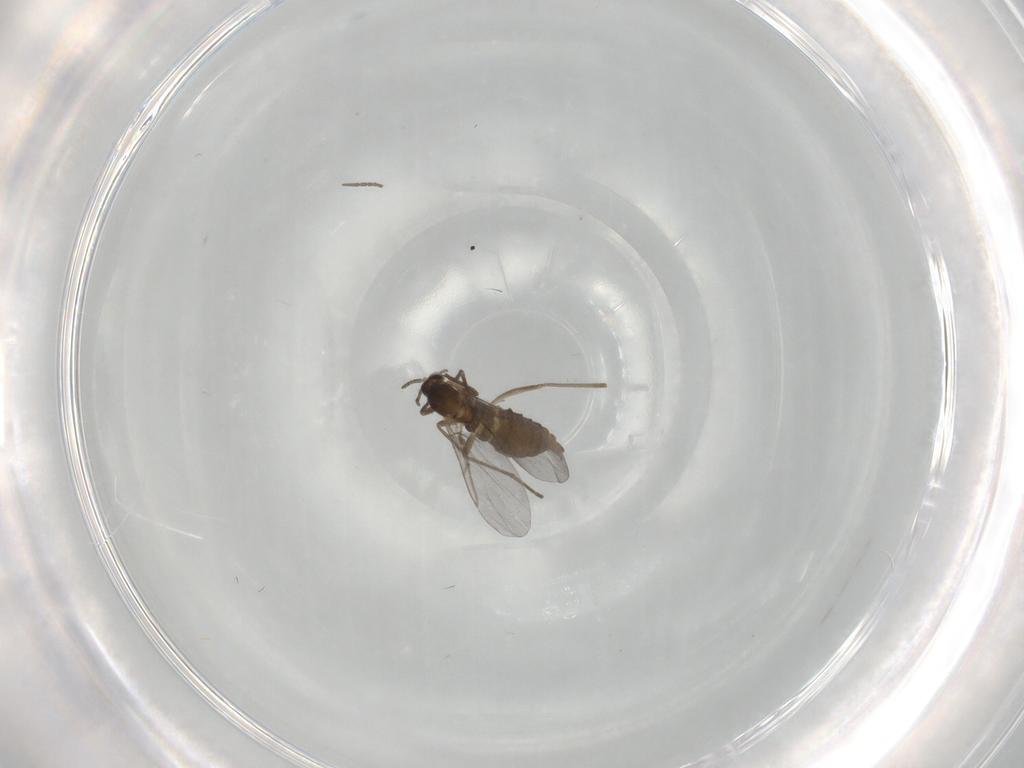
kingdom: Animalia
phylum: Arthropoda
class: Insecta
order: Diptera
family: Cecidomyiidae
